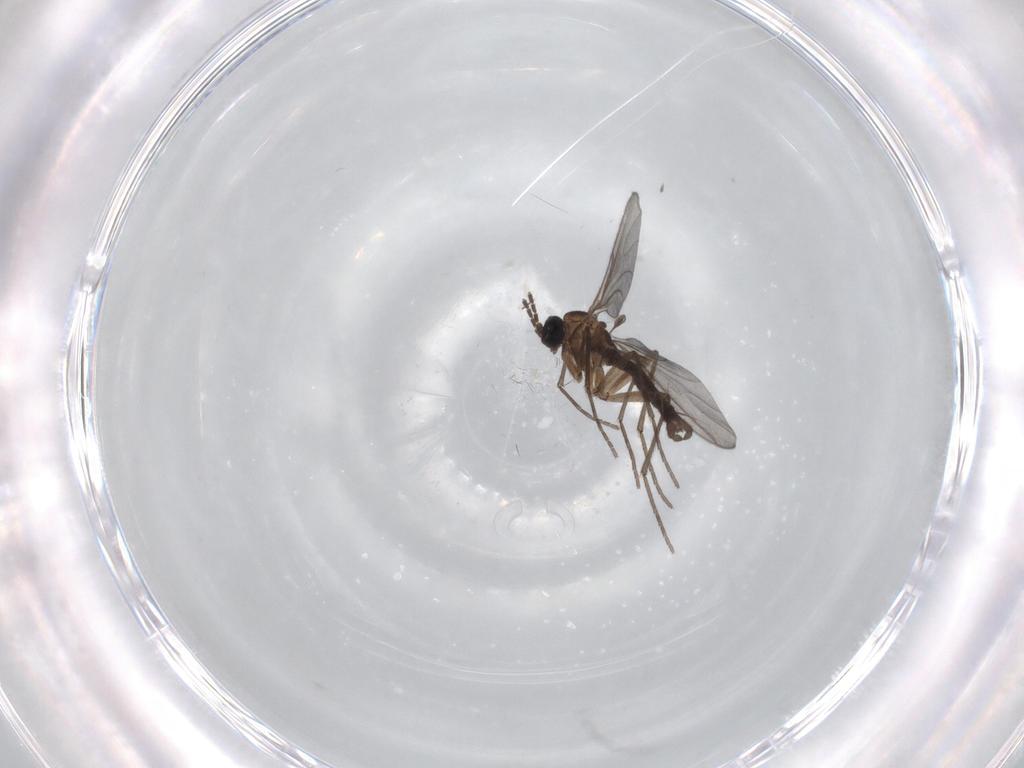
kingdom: Animalia
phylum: Arthropoda
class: Insecta
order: Diptera
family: Sciaridae
